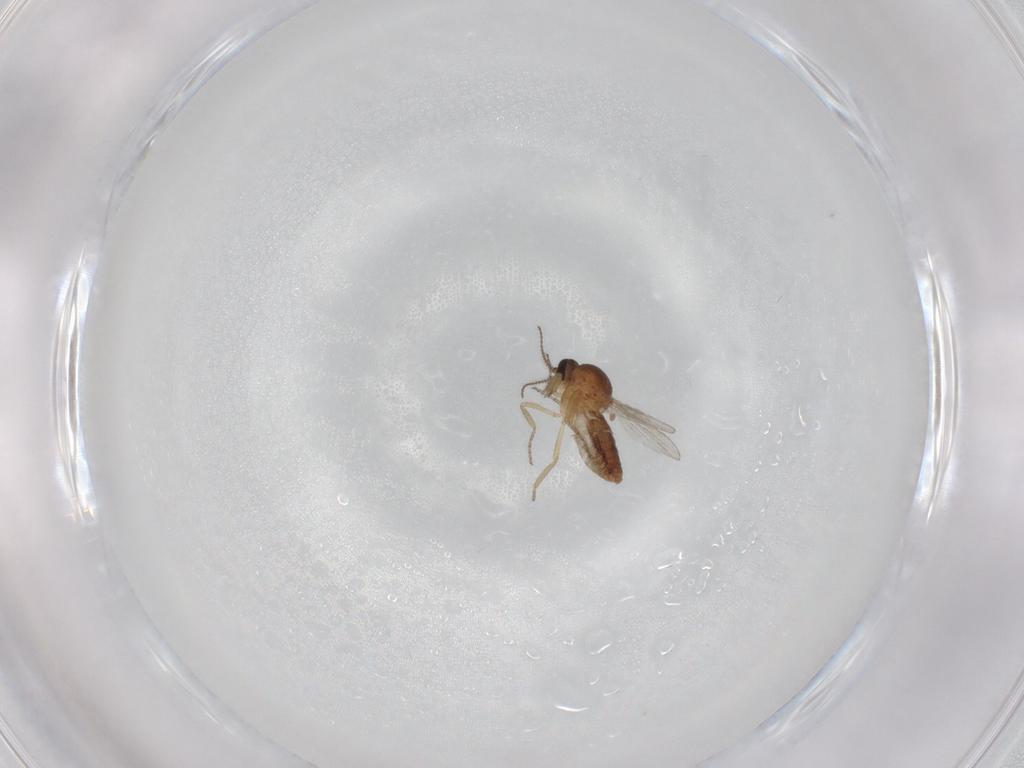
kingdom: Animalia
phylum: Arthropoda
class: Insecta
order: Diptera
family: Ceratopogonidae
